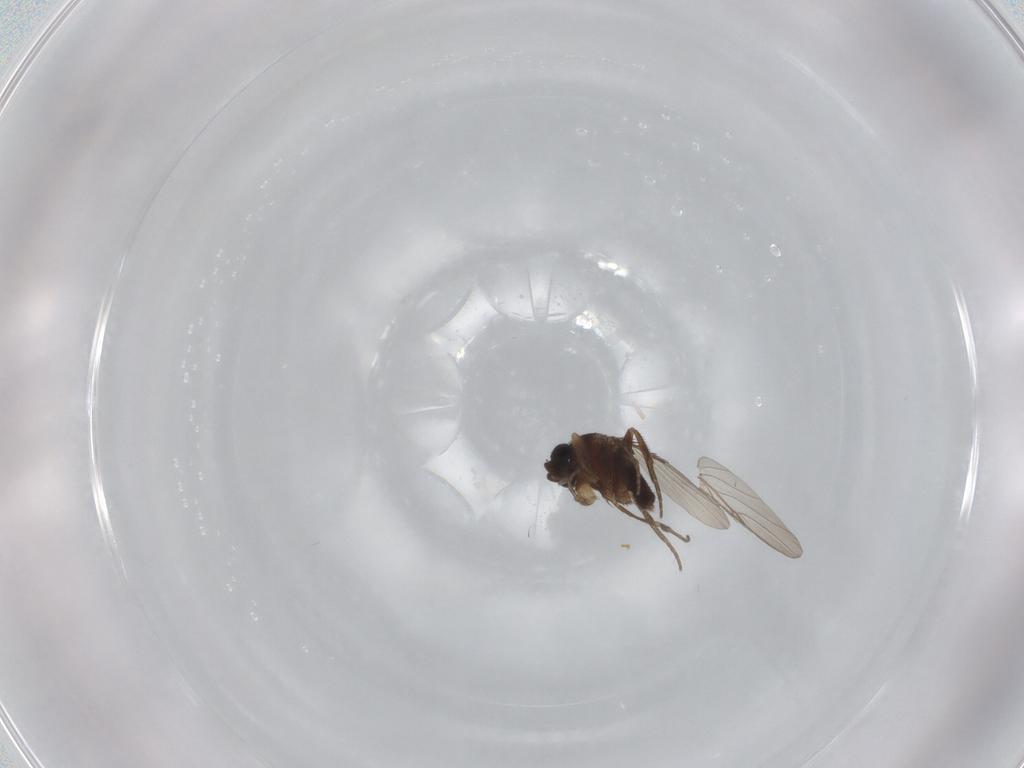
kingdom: Animalia
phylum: Arthropoda
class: Insecta
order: Diptera
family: Phoridae
